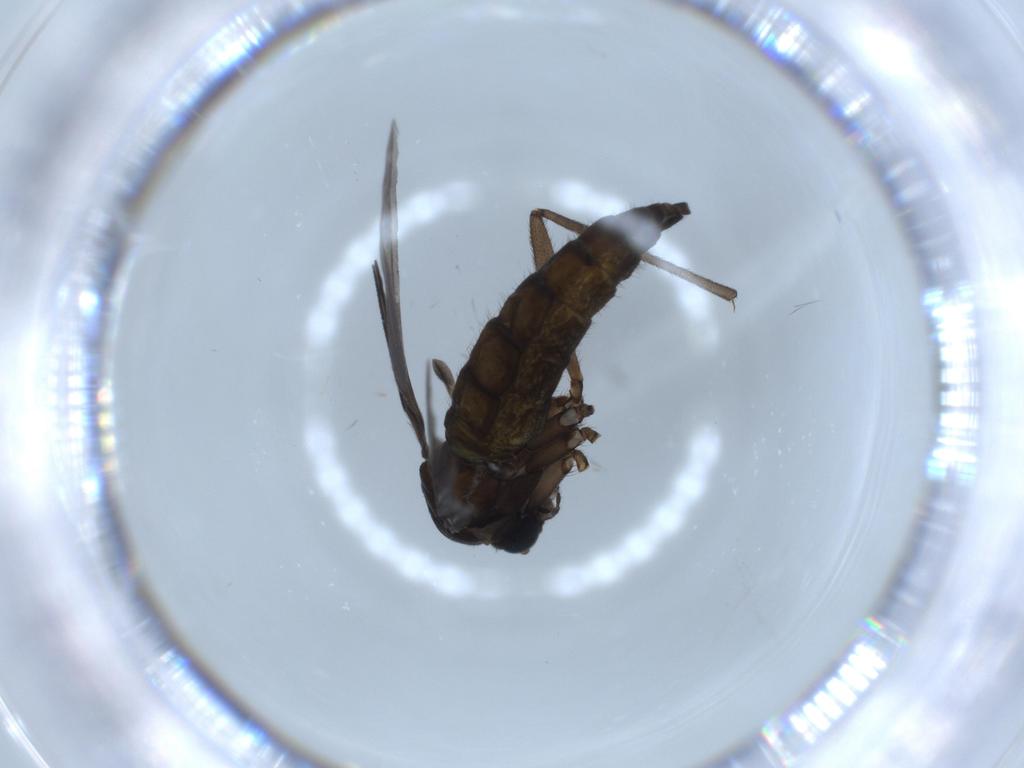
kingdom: Animalia
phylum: Arthropoda
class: Insecta
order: Diptera
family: Sciaridae
